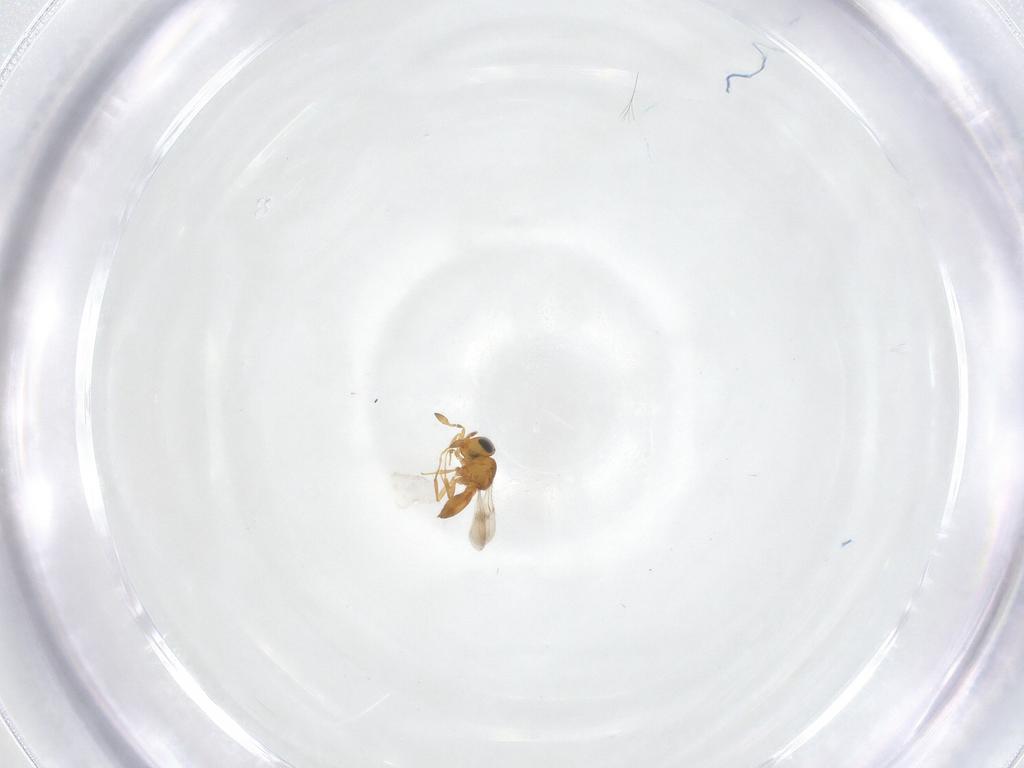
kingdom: Animalia
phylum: Arthropoda
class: Insecta
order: Hymenoptera
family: Scelionidae
